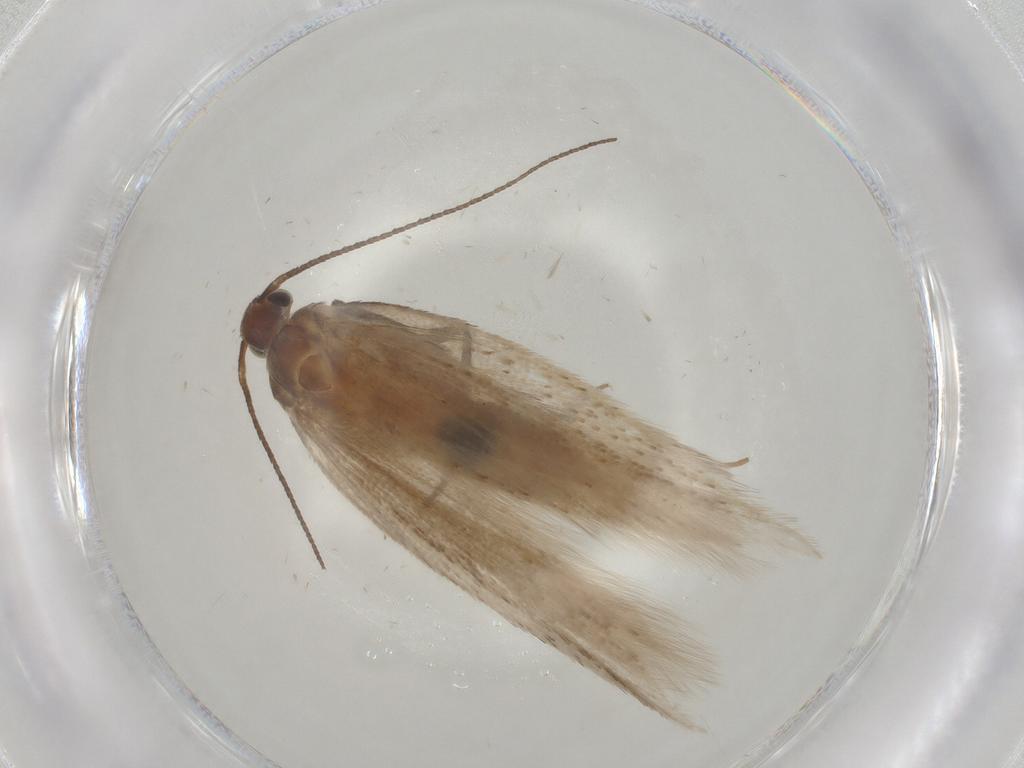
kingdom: Animalia
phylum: Arthropoda
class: Insecta
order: Lepidoptera
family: Gelechiidae
